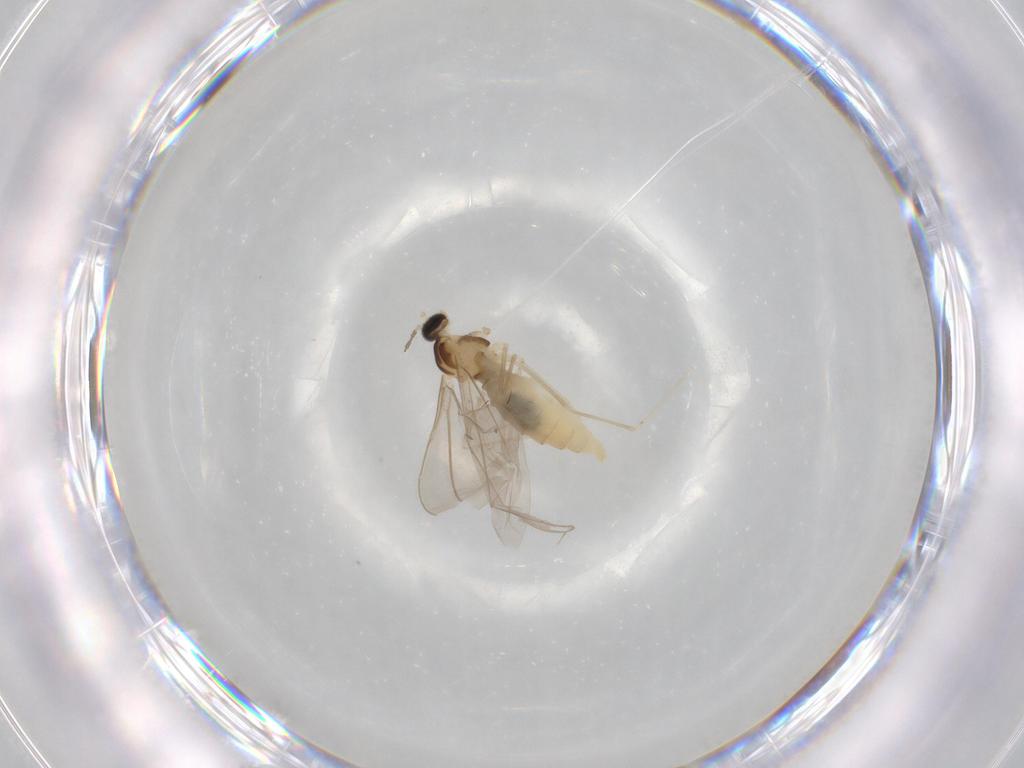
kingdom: Animalia
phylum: Arthropoda
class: Insecta
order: Diptera
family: Cecidomyiidae
